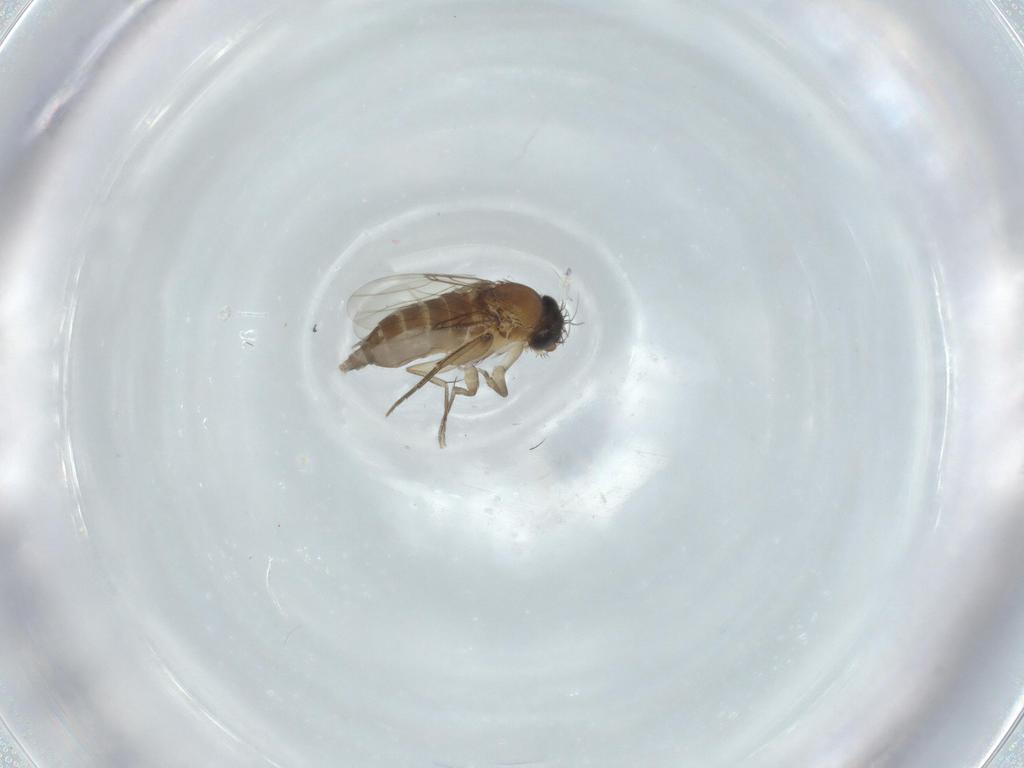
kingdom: Animalia
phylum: Arthropoda
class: Insecta
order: Diptera
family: Phoridae
